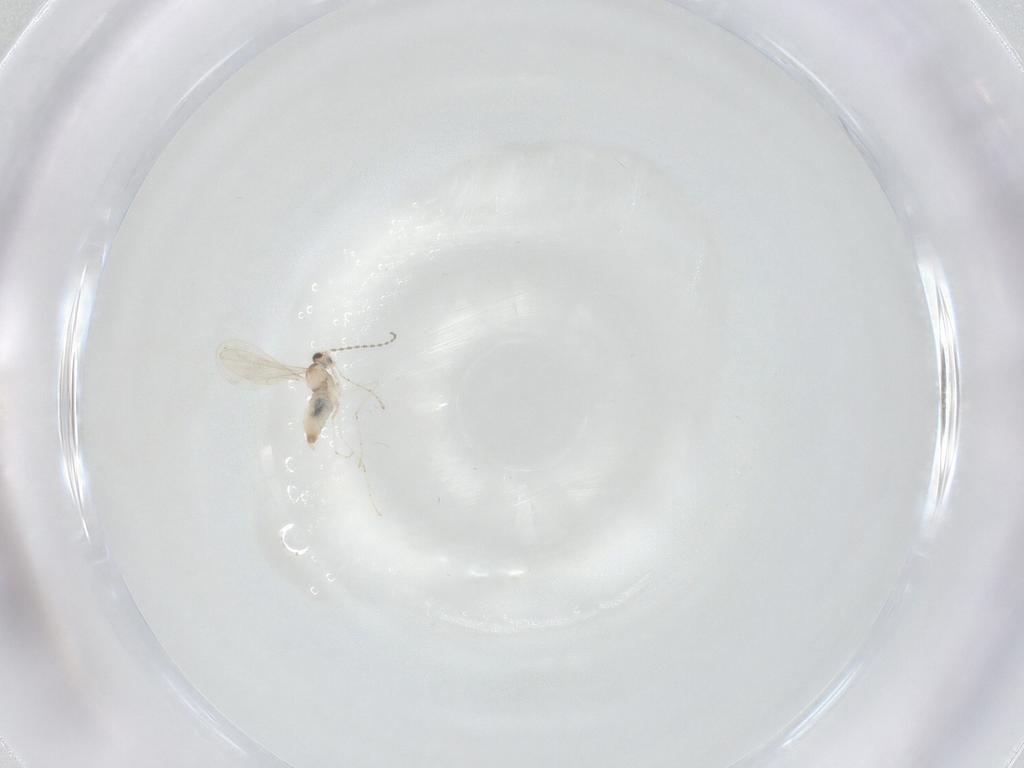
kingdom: Animalia
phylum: Arthropoda
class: Insecta
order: Diptera
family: Cecidomyiidae
